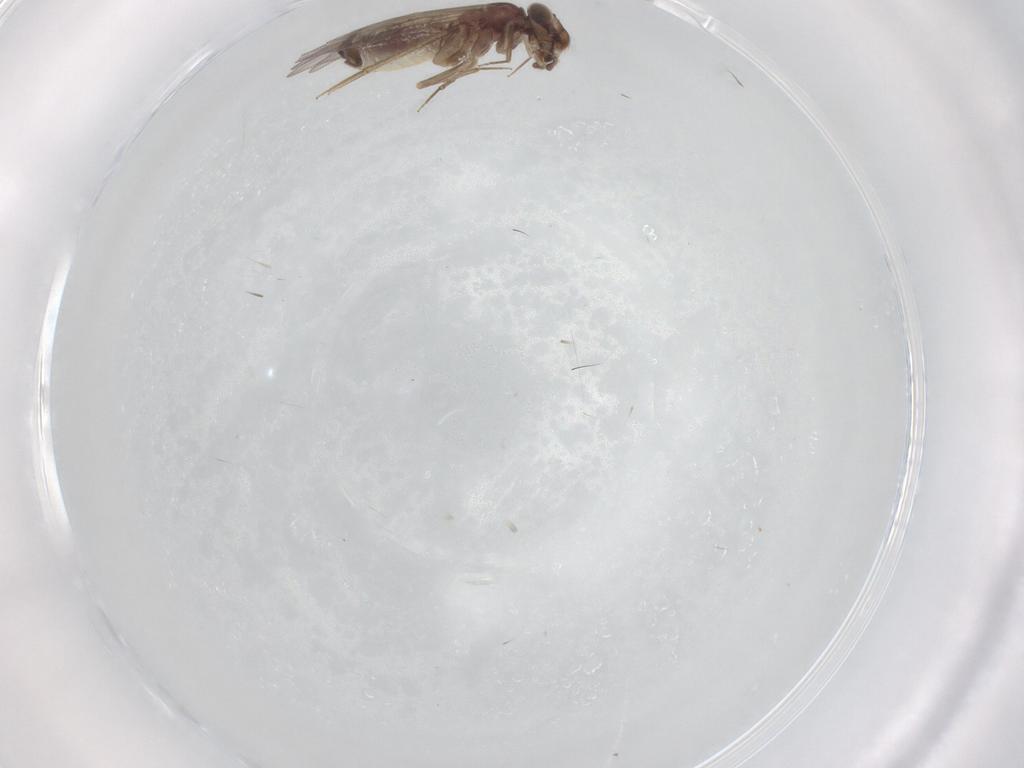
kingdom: Animalia
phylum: Arthropoda
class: Insecta
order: Psocodea
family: Lepidopsocidae
